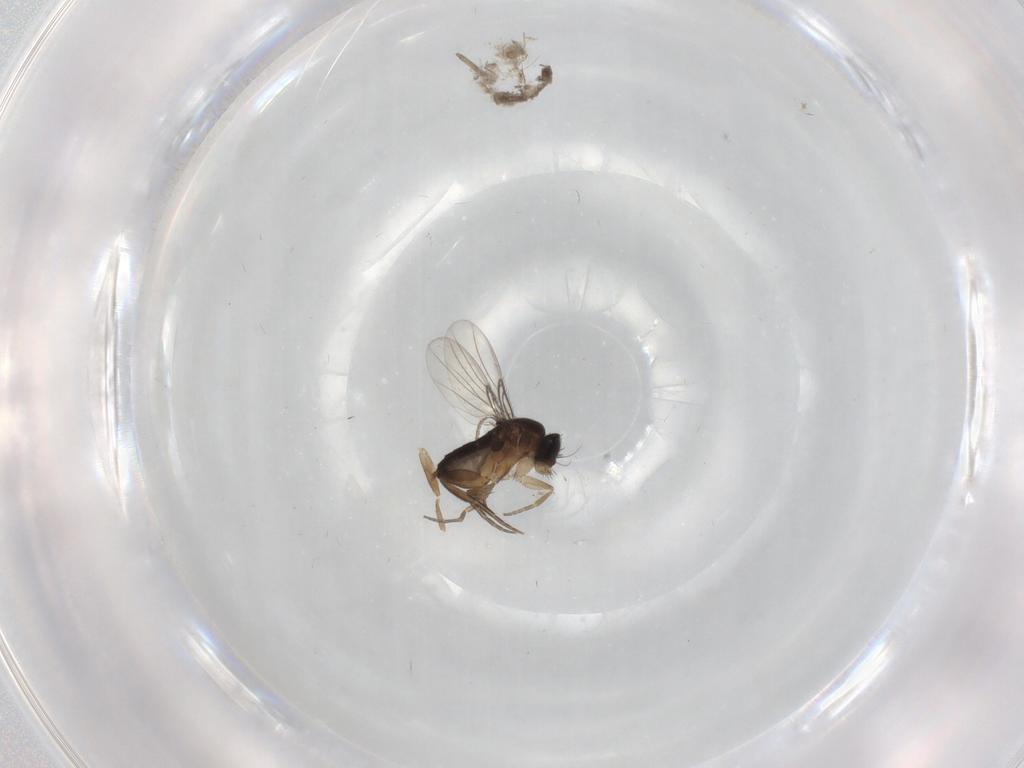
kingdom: Animalia
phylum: Arthropoda
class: Insecta
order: Diptera
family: Phoridae
